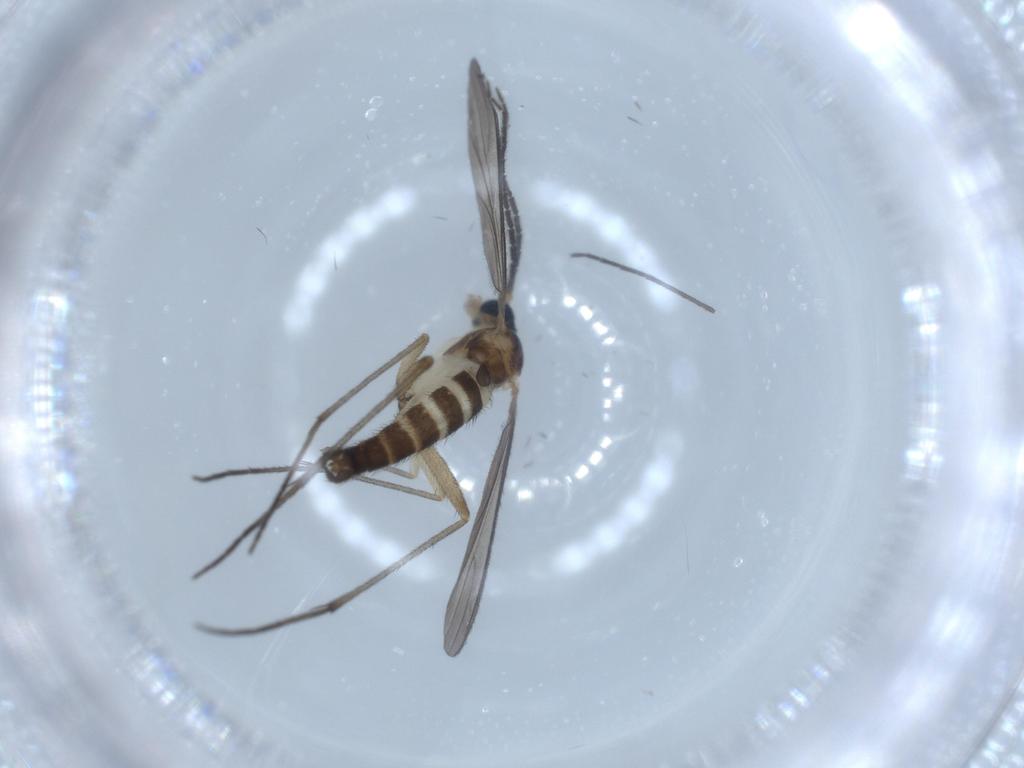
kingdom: Animalia
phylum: Arthropoda
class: Insecta
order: Diptera
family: Sciaridae
